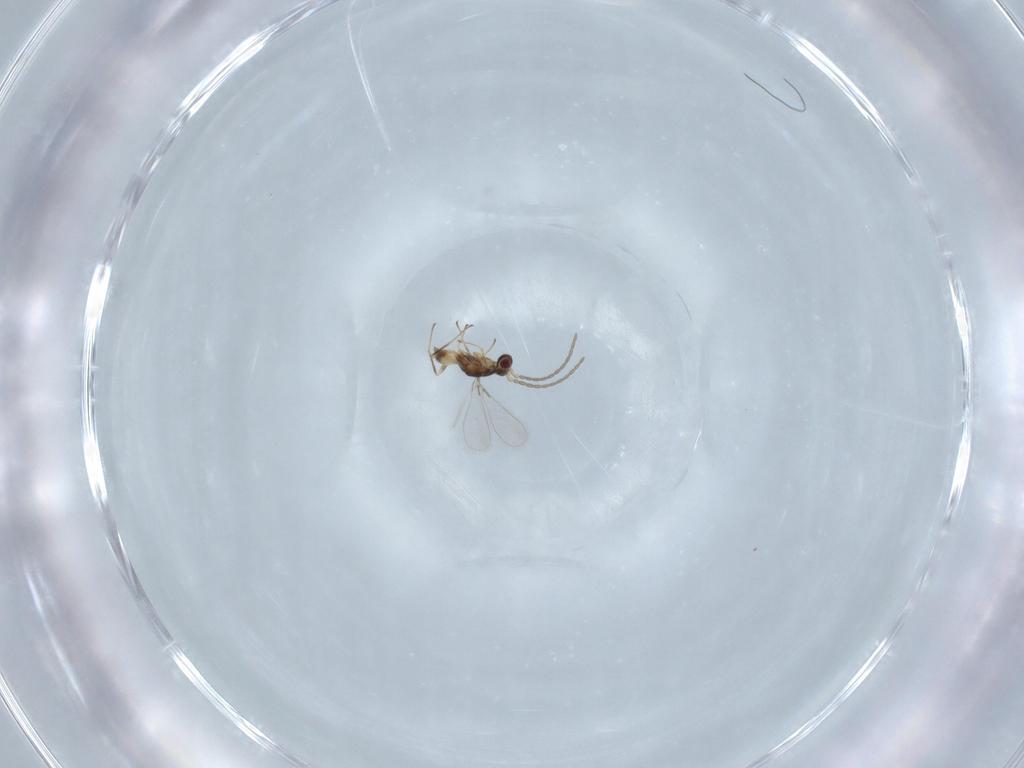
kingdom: Animalia
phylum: Arthropoda
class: Insecta
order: Hymenoptera
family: Mymaridae
